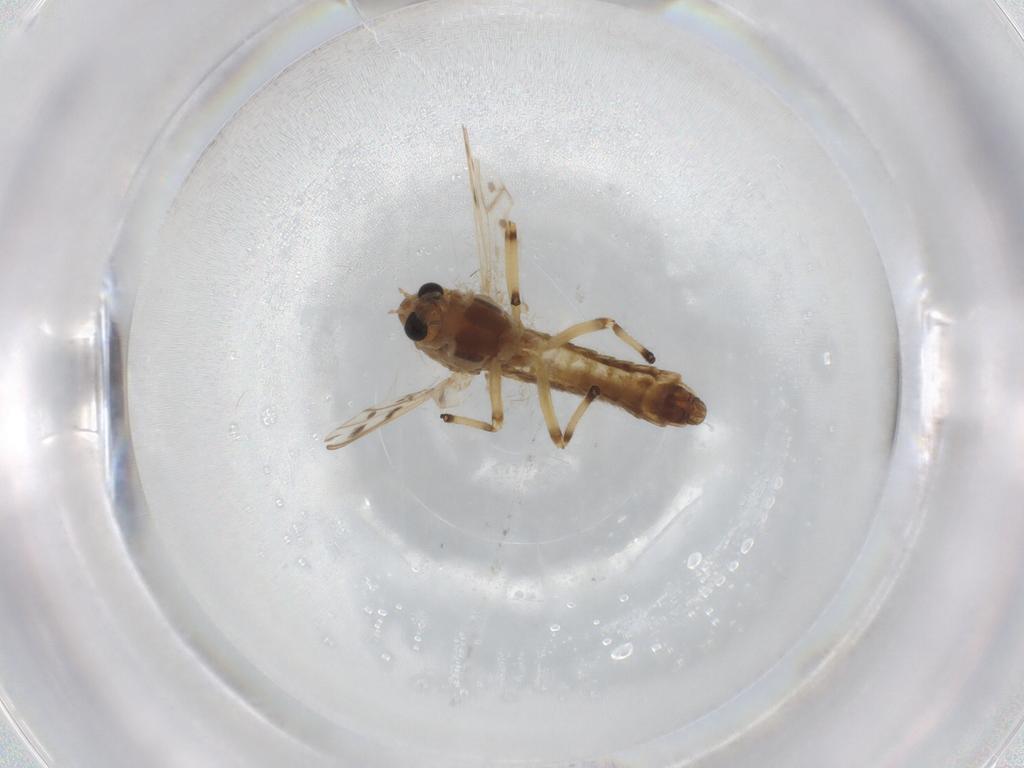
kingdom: Animalia
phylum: Arthropoda
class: Insecta
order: Diptera
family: Chironomidae
